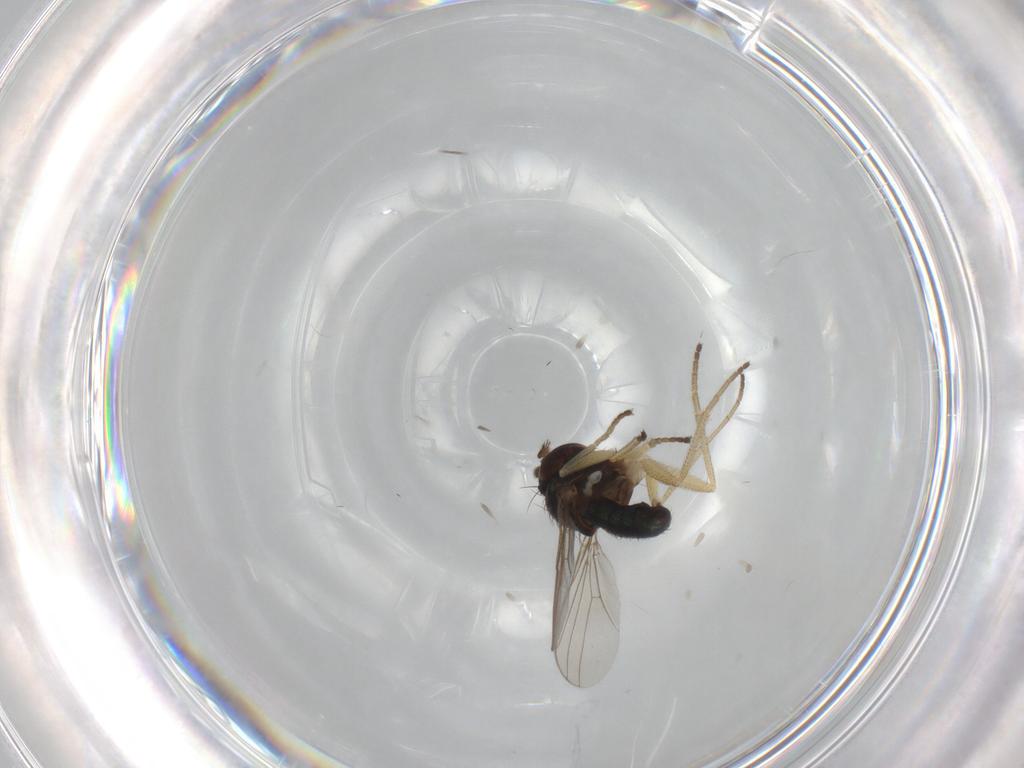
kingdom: Animalia
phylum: Arthropoda
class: Insecta
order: Diptera
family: Dolichopodidae
